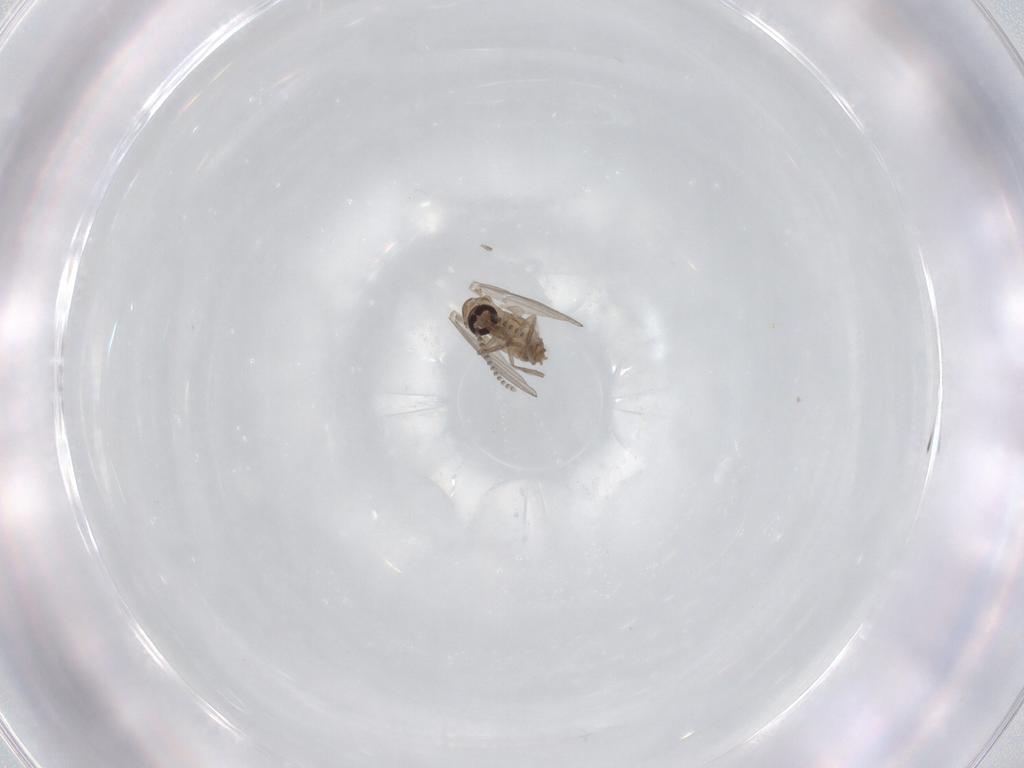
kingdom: Animalia
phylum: Arthropoda
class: Insecta
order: Diptera
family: Psychodidae
